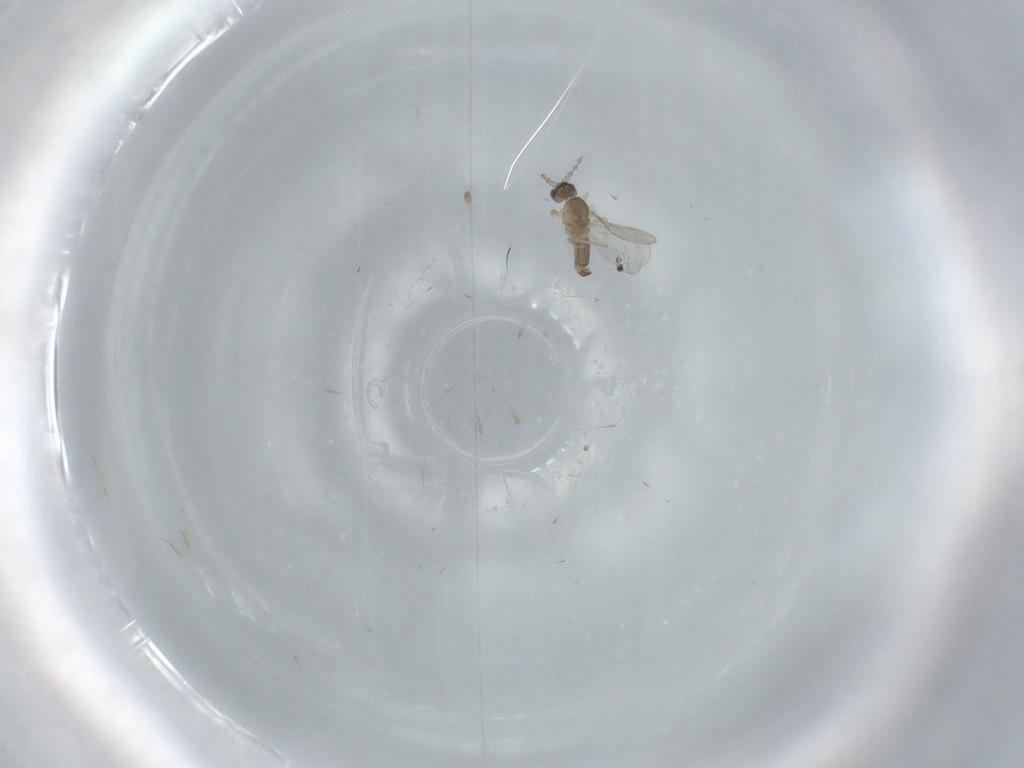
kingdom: Animalia
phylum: Arthropoda
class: Insecta
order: Diptera
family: Cecidomyiidae
